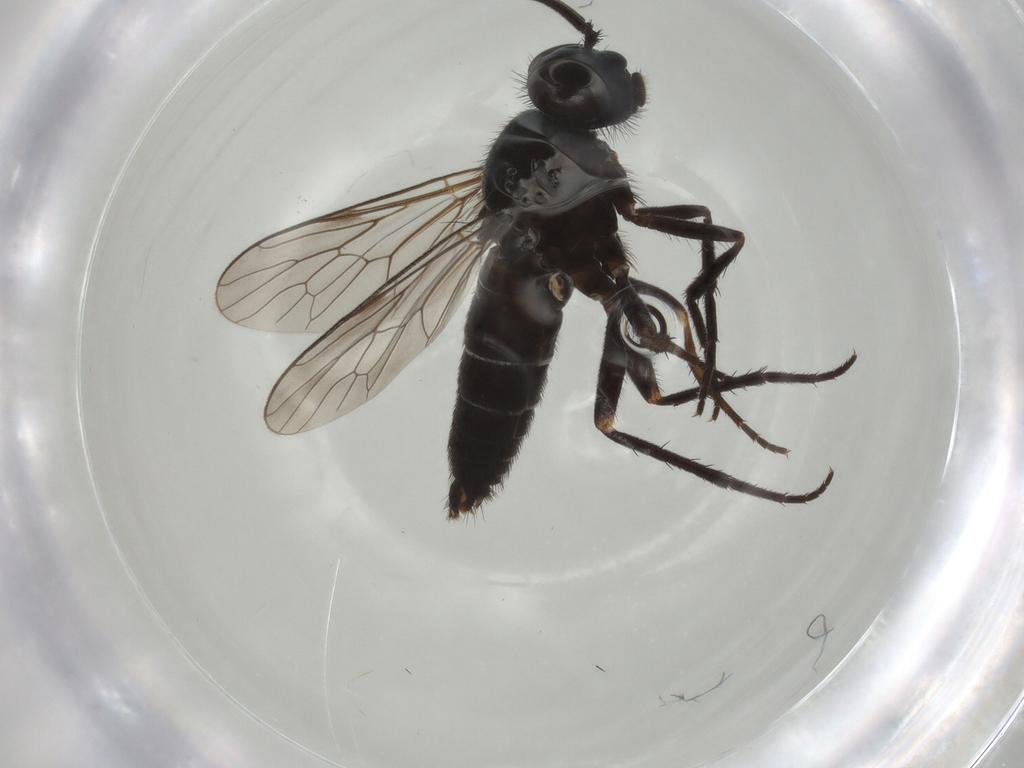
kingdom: Animalia
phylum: Arthropoda
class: Insecta
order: Diptera
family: Therevidae
